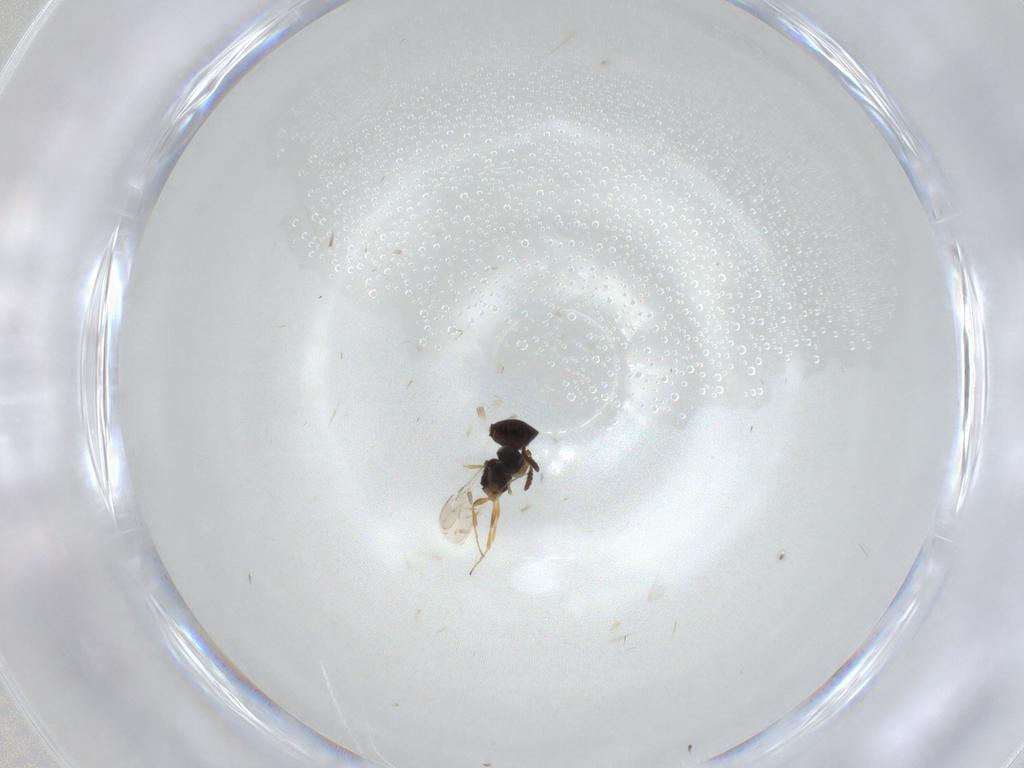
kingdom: Animalia
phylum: Arthropoda
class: Insecta
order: Hymenoptera
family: Scelionidae
